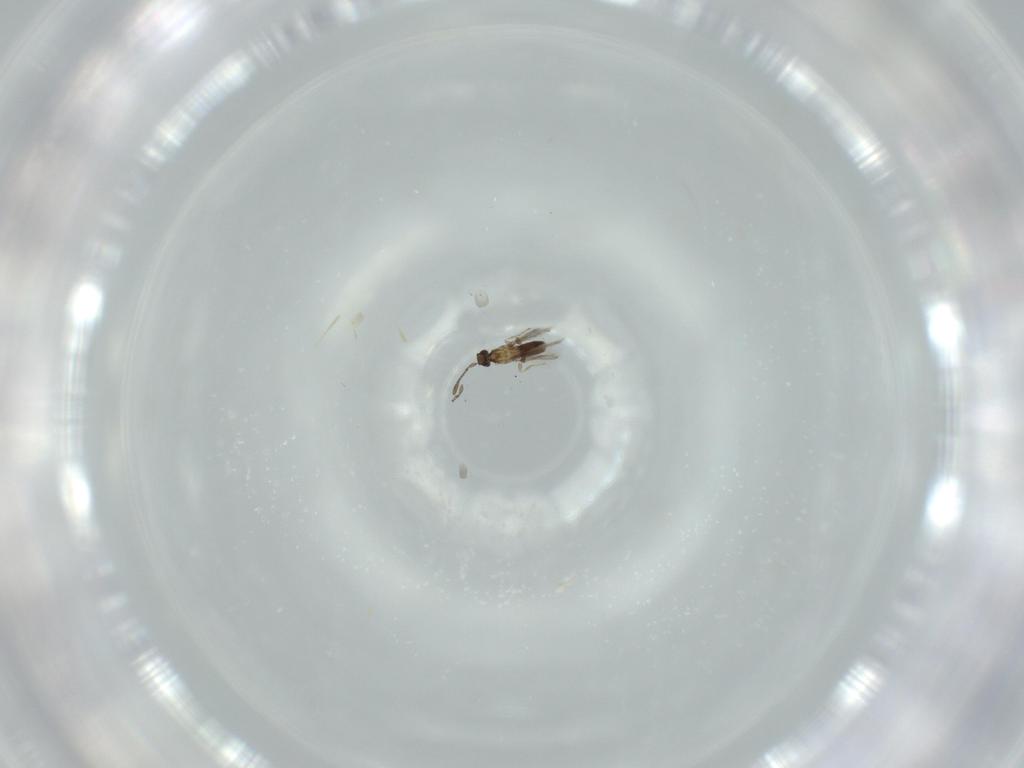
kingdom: Animalia
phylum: Arthropoda
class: Insecta
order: Hymenoptera
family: Mymaridae
